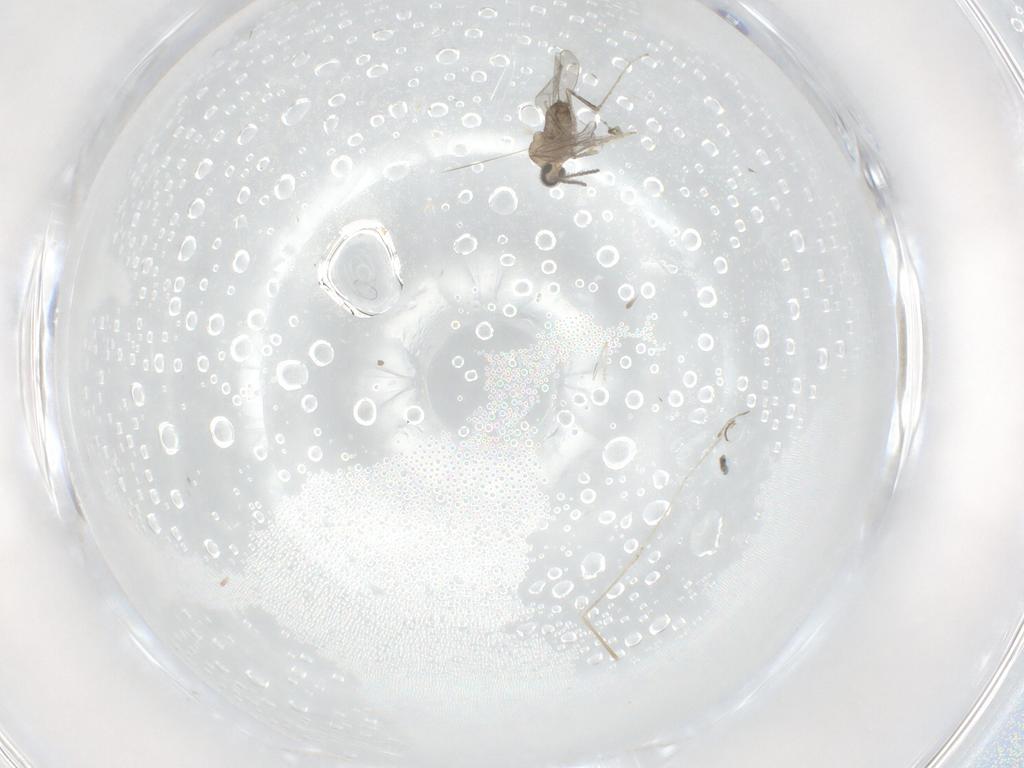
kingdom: Animalia
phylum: Arthropoda
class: Insecta
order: Diptera
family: Cecidomyiidae
